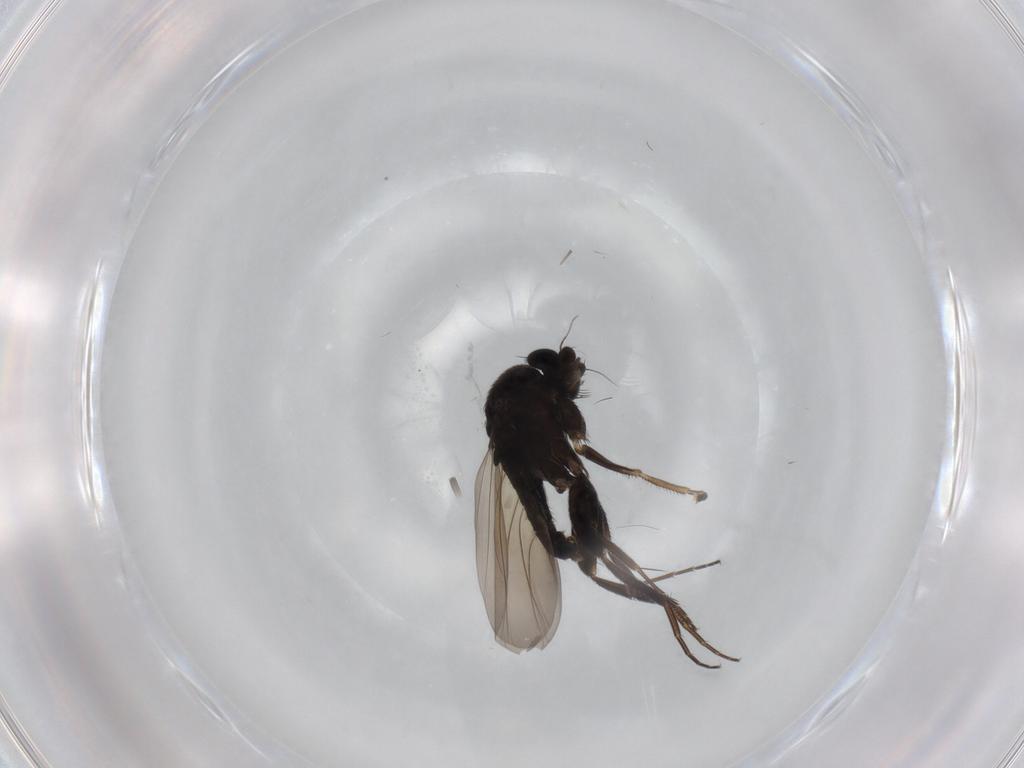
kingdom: Animalia
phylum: Arthropoda
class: Insecta
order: Diptera
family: Phoridae
